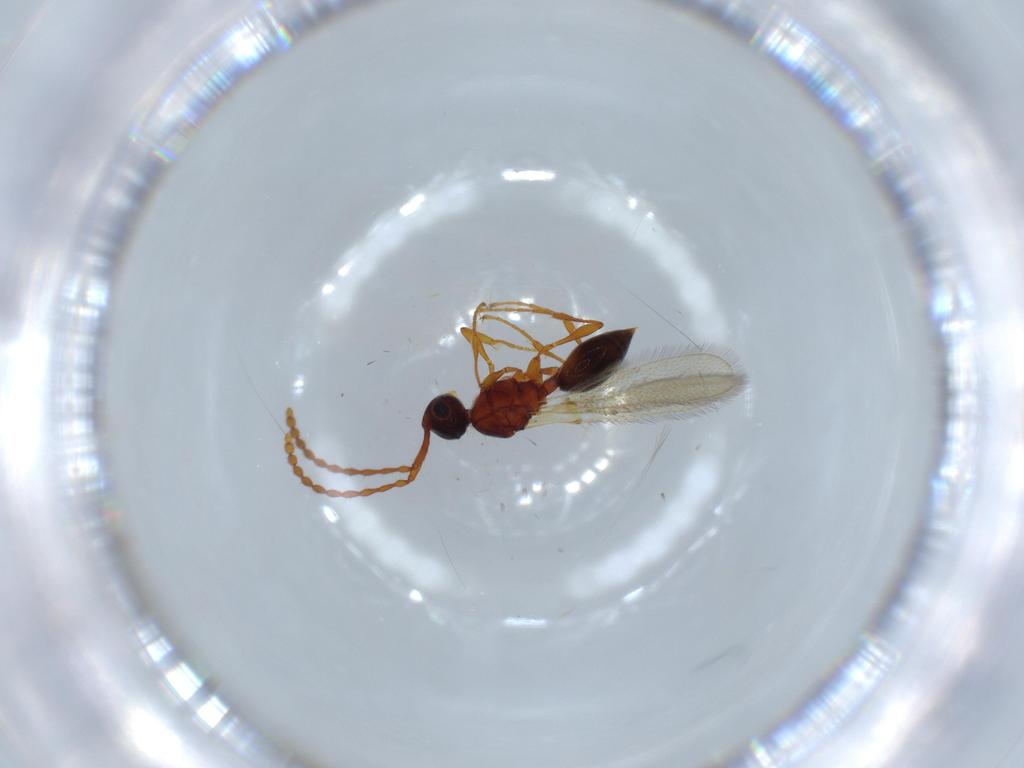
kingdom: Animalia
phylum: Arthropoda
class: Insecta
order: Hymenoptera
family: Diapriidae
